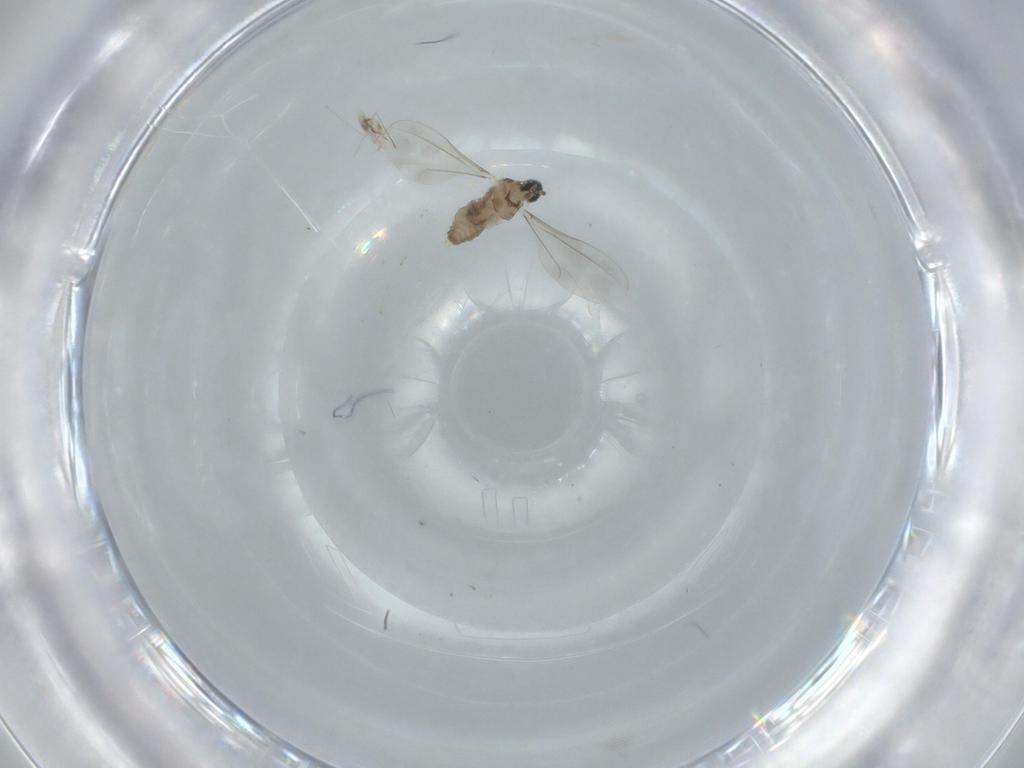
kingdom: Animalia
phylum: Arthropoda
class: Insecta
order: Diptera
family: Cecidomyiidae
